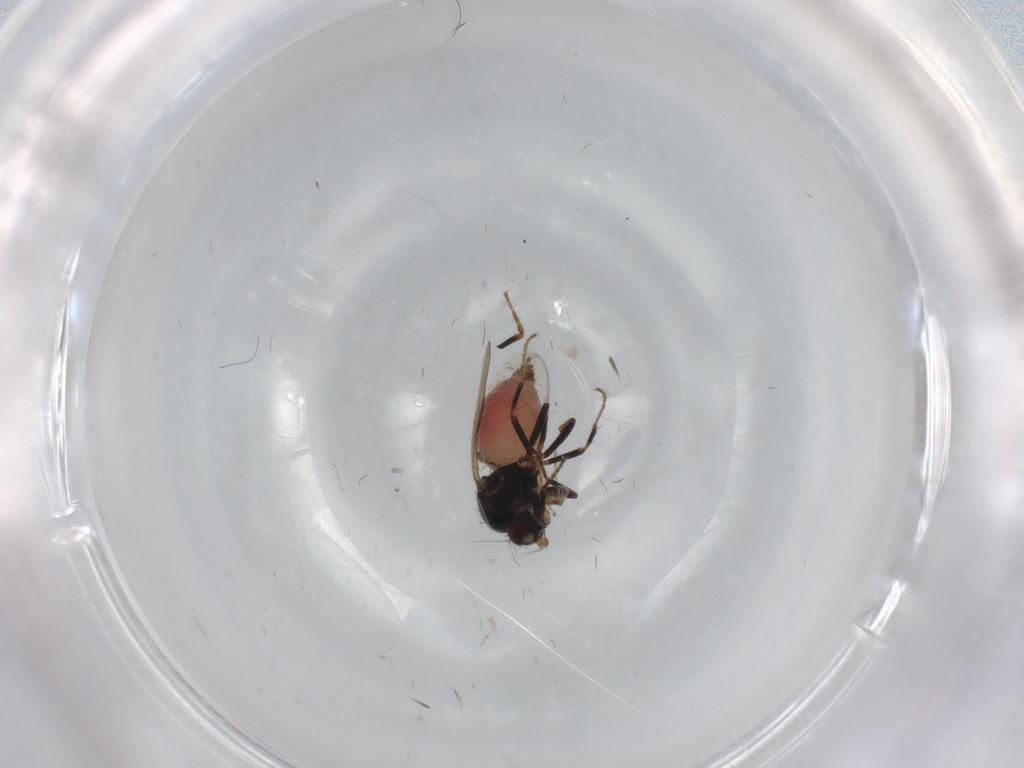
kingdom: Animalia
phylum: Arthropoda
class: Insecta
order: Diptera
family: Sphaeroceridae
